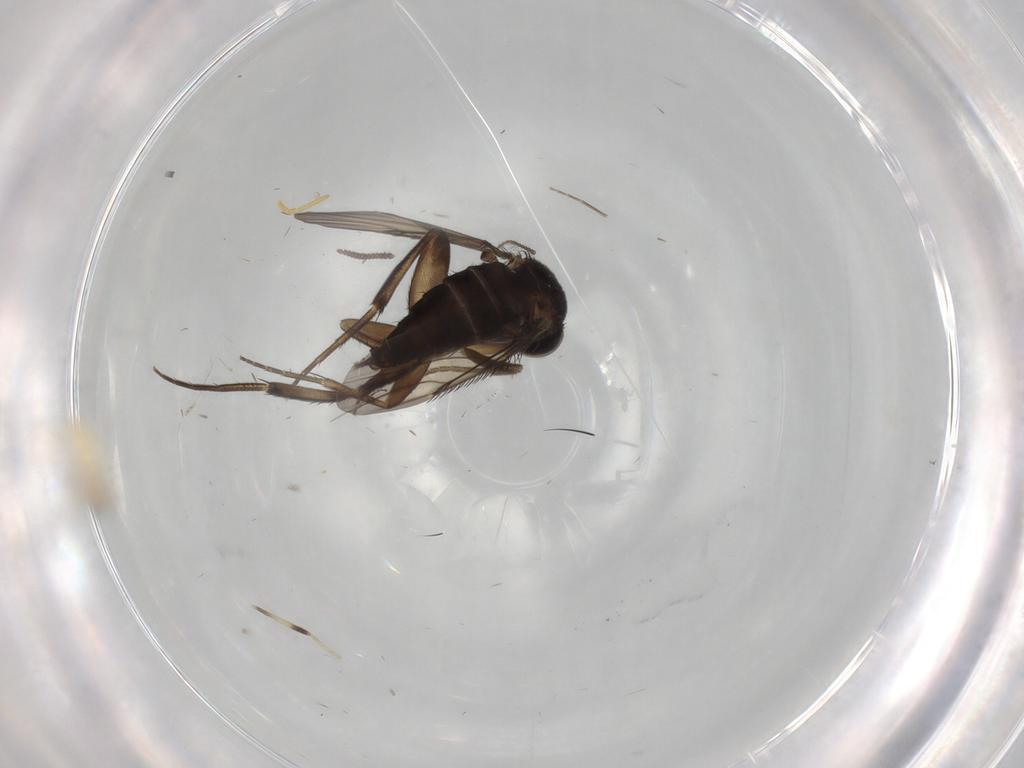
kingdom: Animalia
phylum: Arthropoda
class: Insecta
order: Diptera
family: Phoridae
